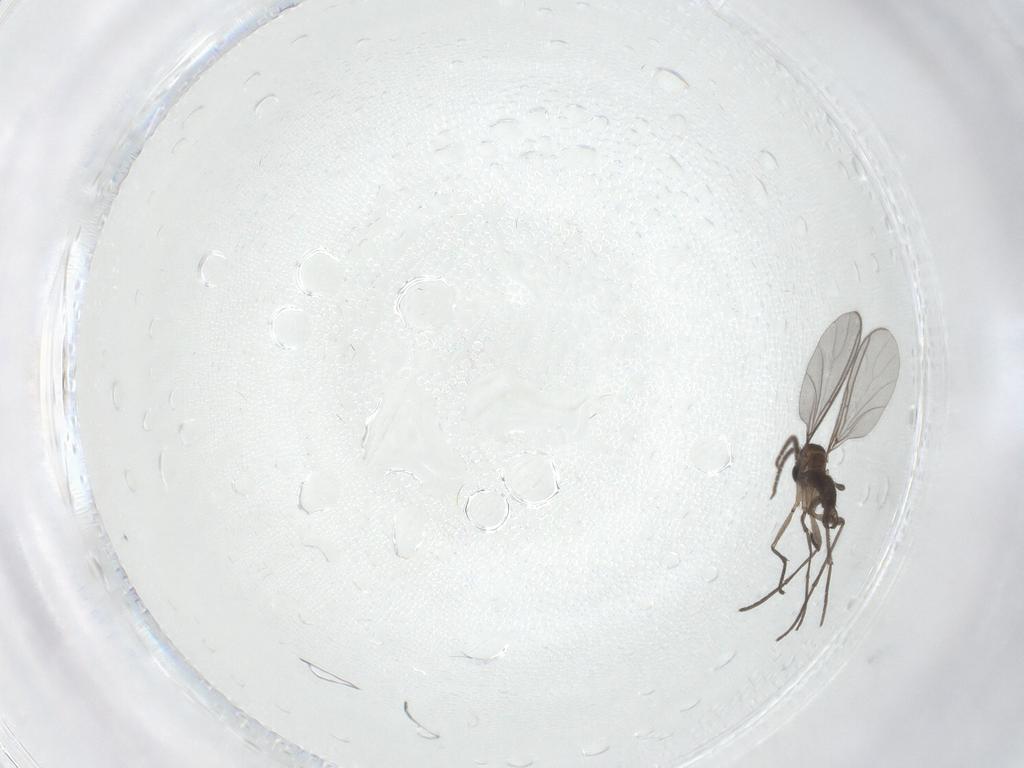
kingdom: Animalia
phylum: Arthropoda
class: Insecta
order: Diptera
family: Sciaridae
